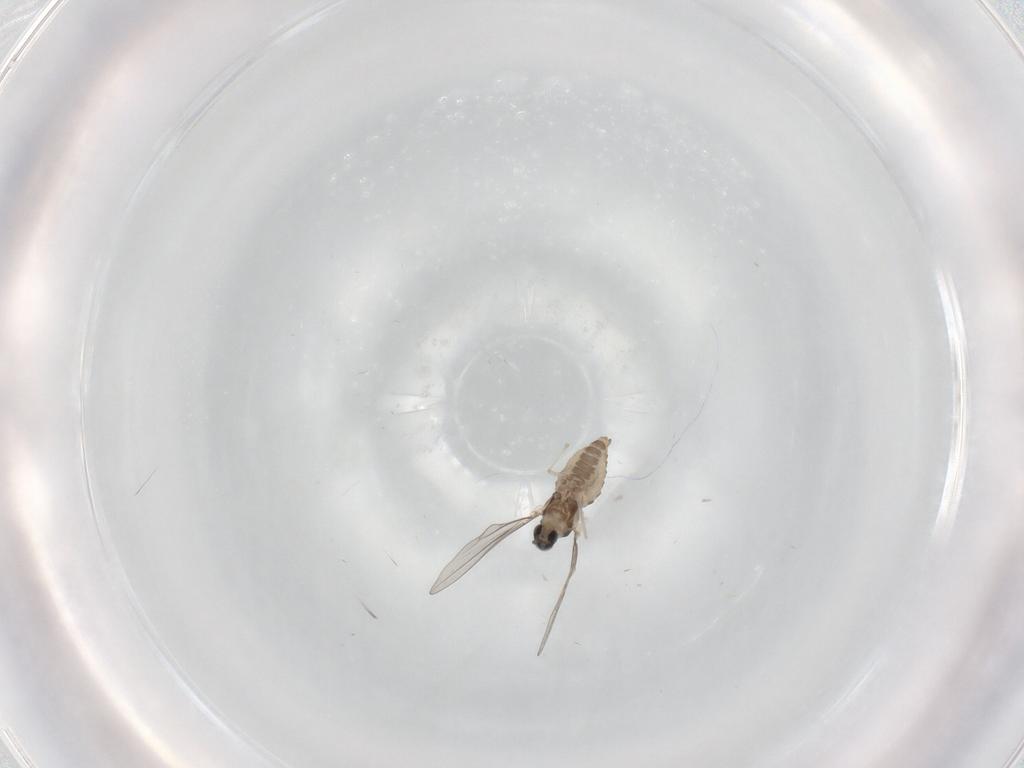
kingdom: Animalia
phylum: Arthropoda
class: Insecta
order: Diptera
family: Cecidomyiidae
